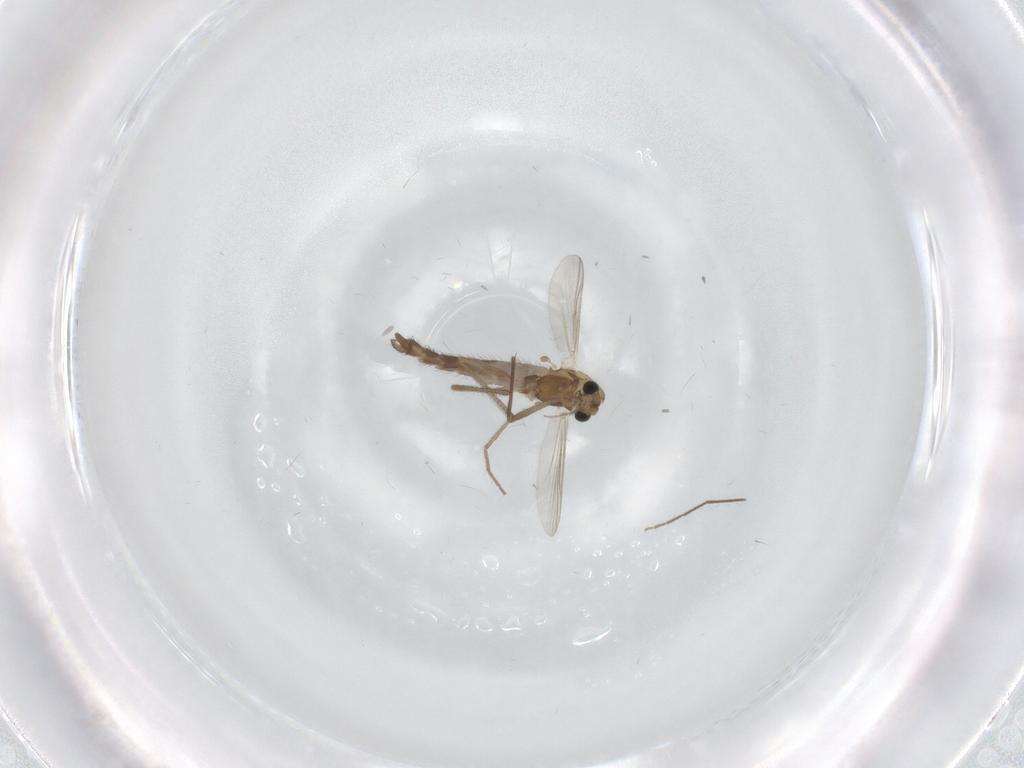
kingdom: Animalia
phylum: Arthropoda
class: Insecta
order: Diptera
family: Chironomidae
